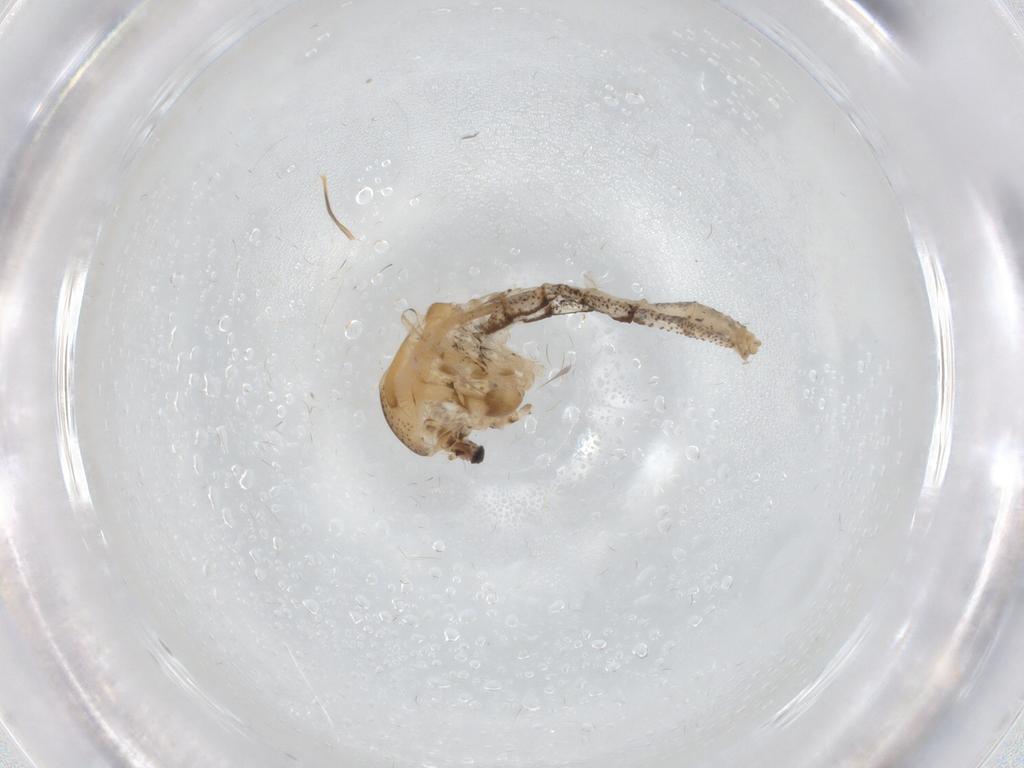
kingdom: Animalia
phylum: Arthropoda
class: Insecta
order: Diptera
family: Chaoboridae
